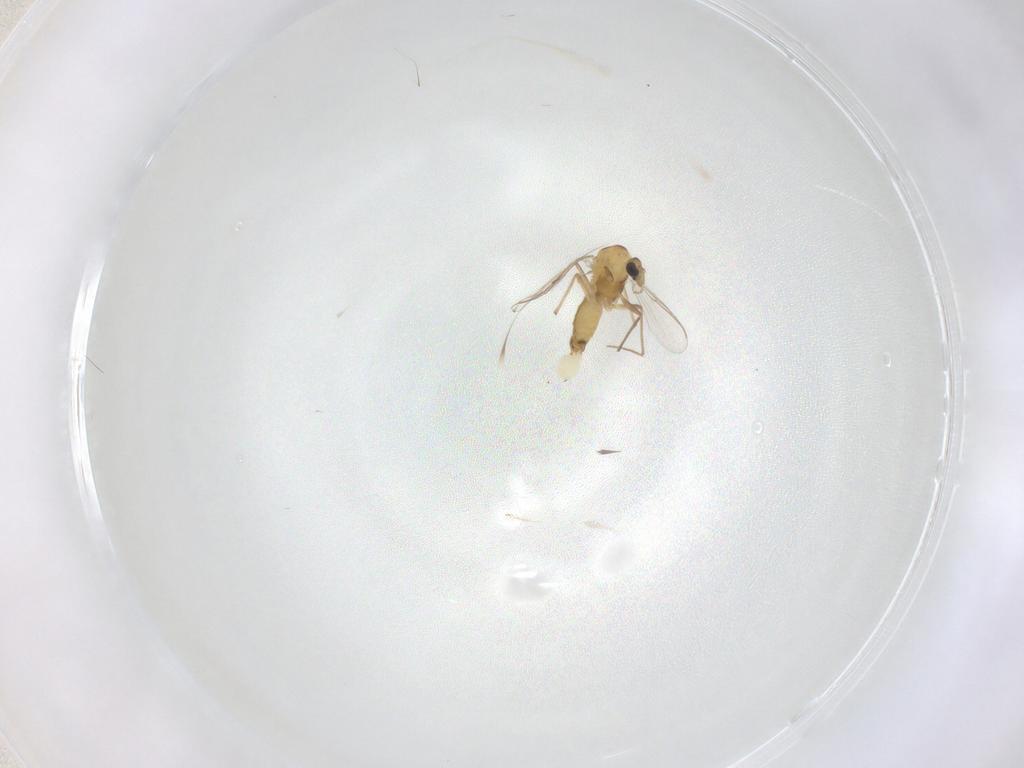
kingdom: Animalia
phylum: Arthropoda
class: Insecta
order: Diptera
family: Chironomidae
